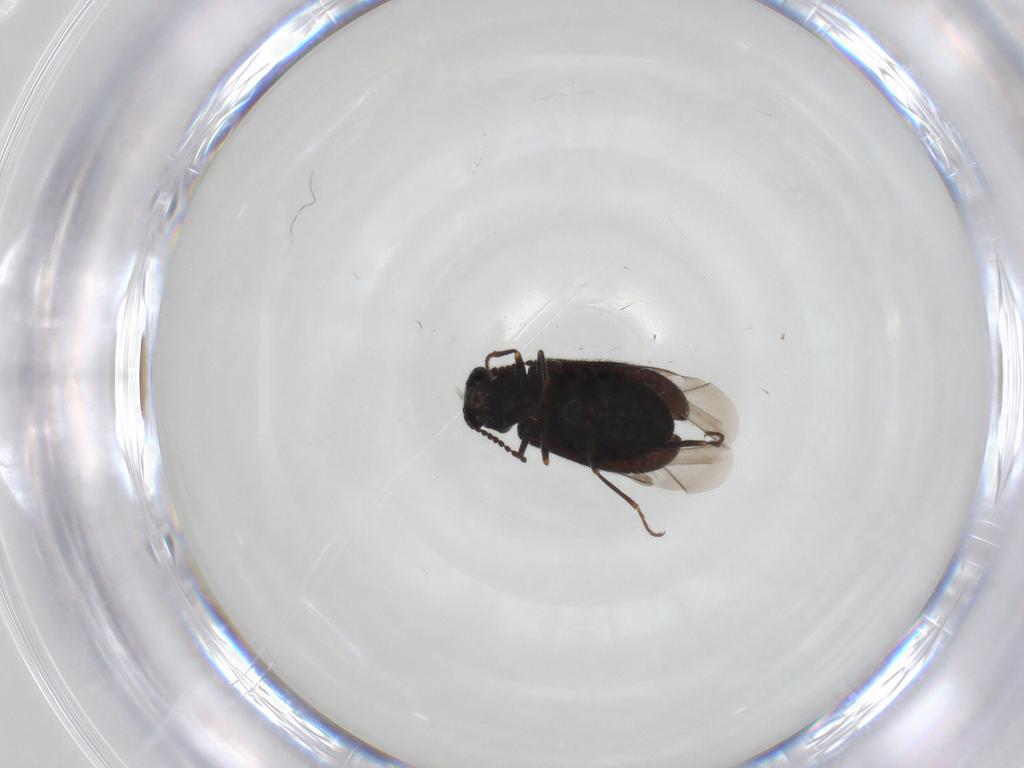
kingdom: Animalia
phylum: Arthropoda
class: Insecta
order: Coleoptera
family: Melyridae
